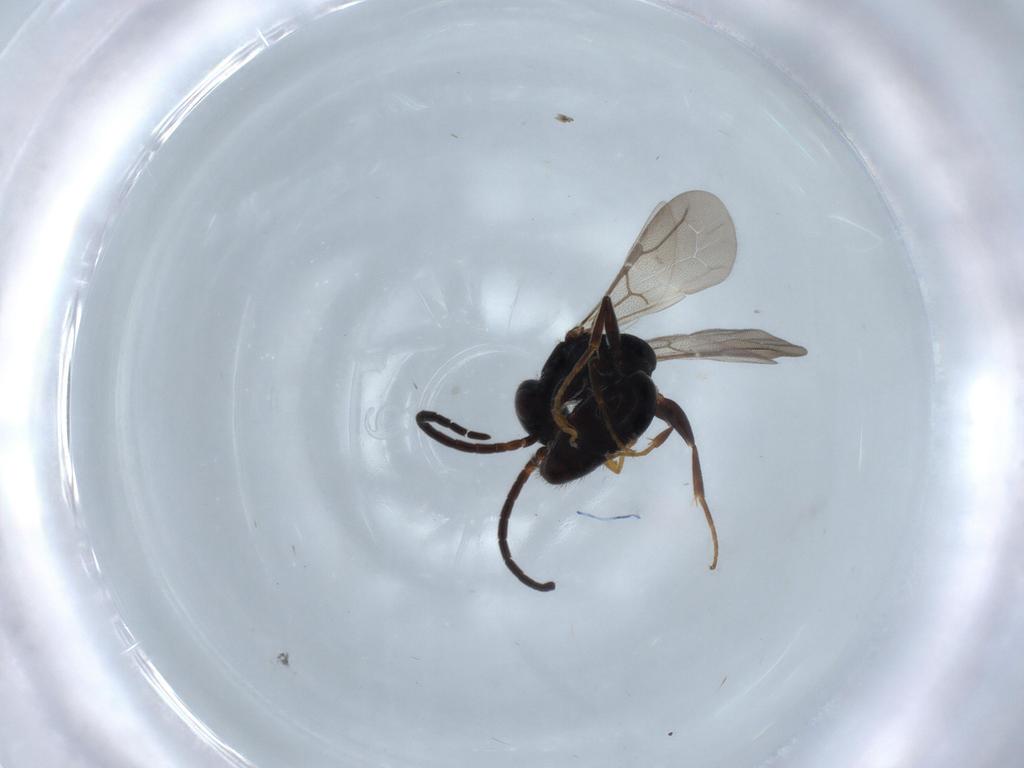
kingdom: Animalia
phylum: Arthropoda
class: Insecta
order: Hymenoptera
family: Bethylidae
